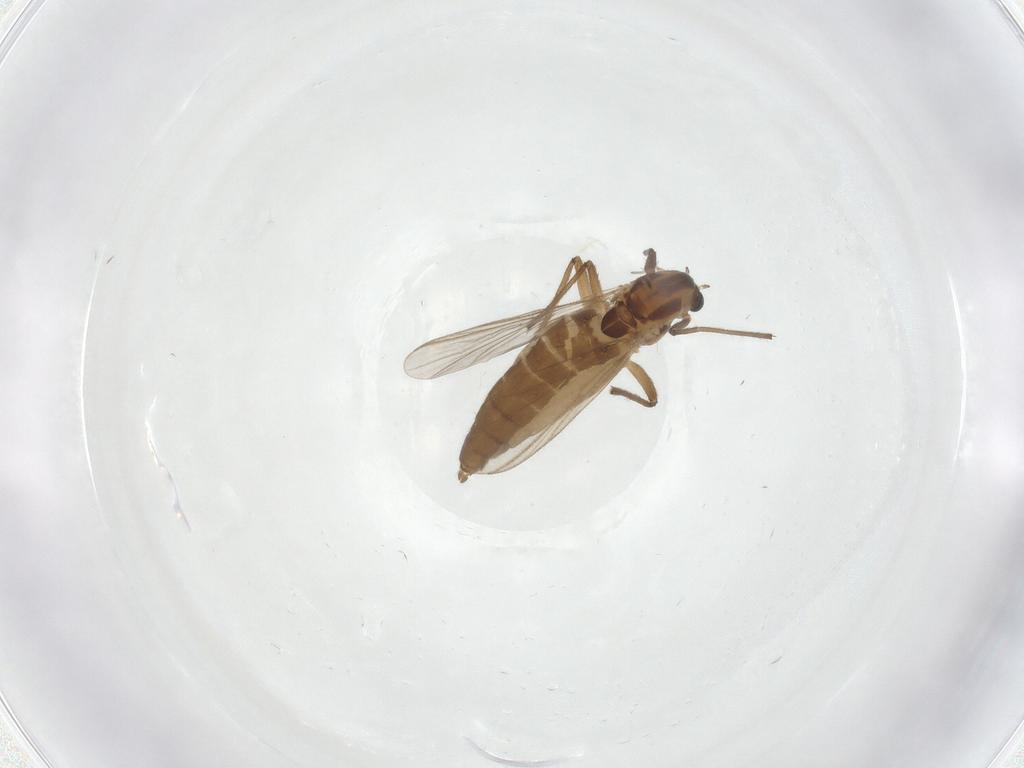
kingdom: Animalia
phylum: Arthropoda
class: Insecta
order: Diptera
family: Chironomidae
